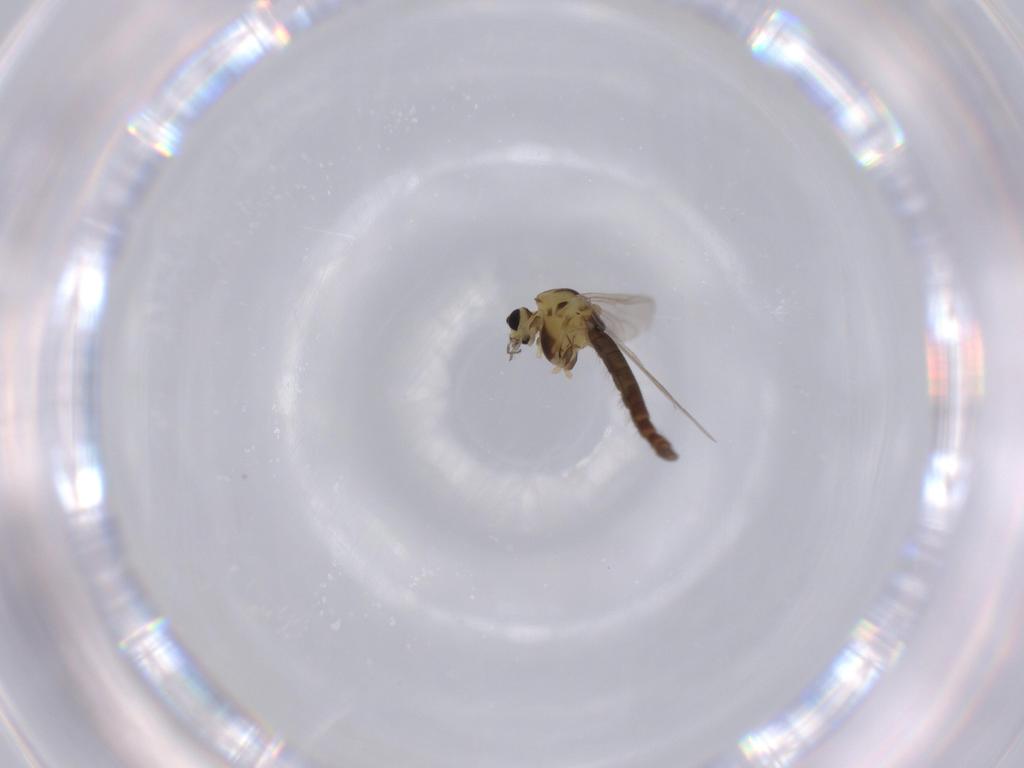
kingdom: Animalia
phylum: Arthropoda
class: Insecta
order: Diptera
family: Chironomidae
